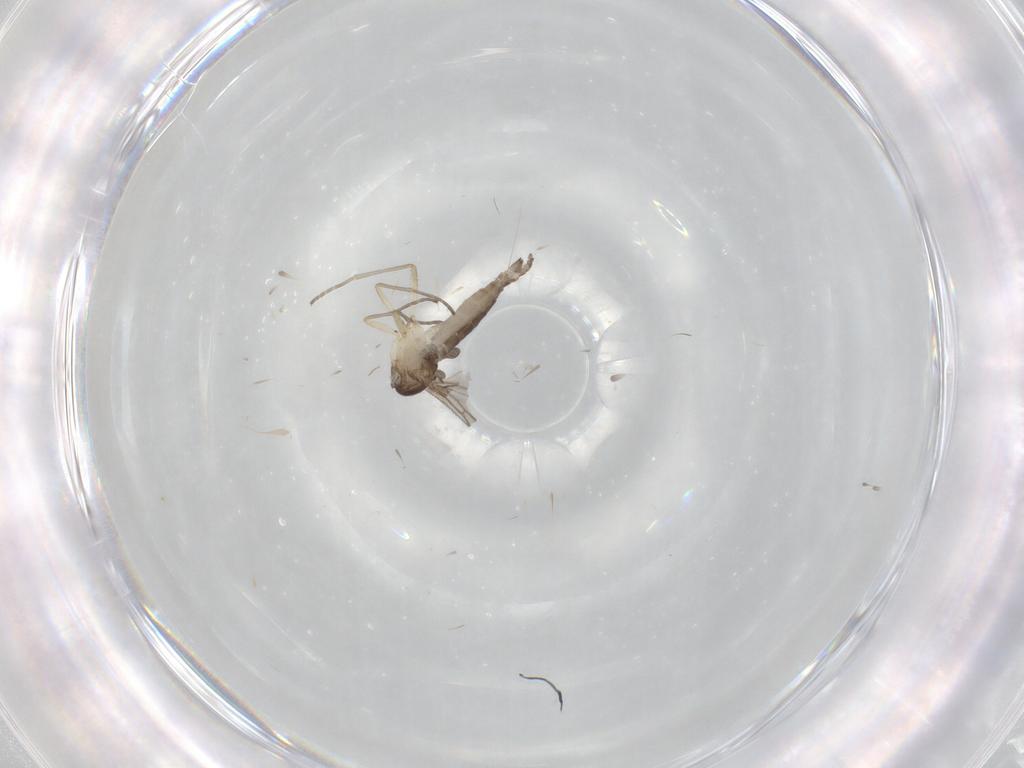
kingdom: Animalia
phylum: Arthropoda
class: Insecta
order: Diptera
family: Sciaridae
